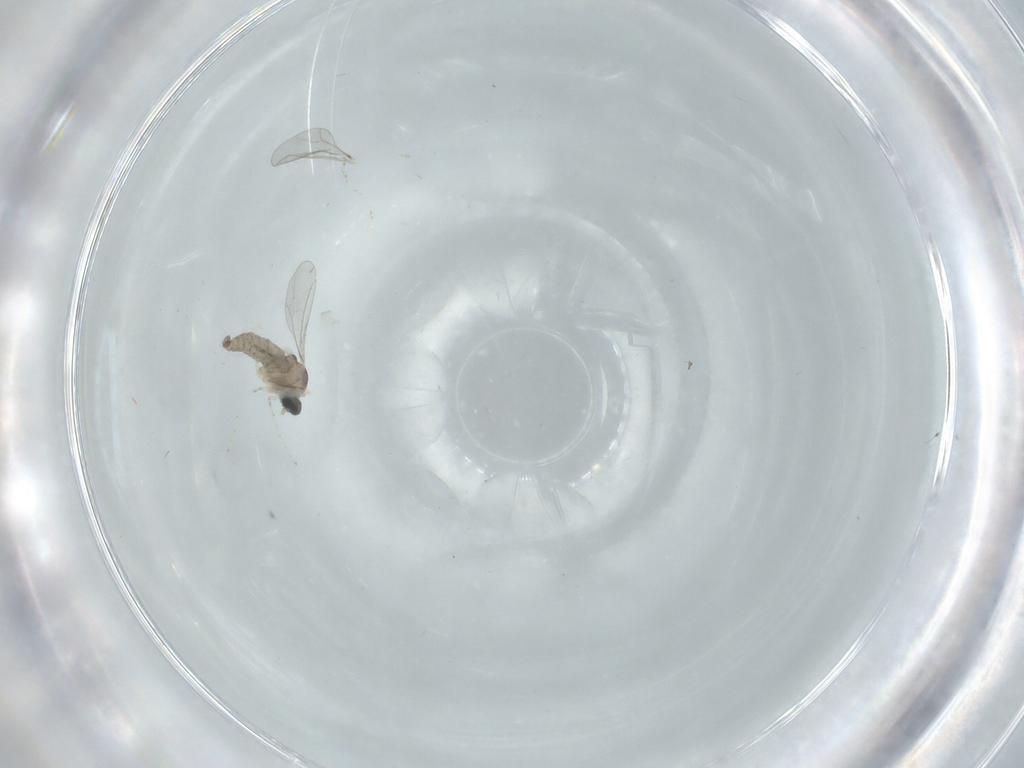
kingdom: Animalia
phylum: Arthropoda
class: Insecta
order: Diptera
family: Cecidomyiidae
